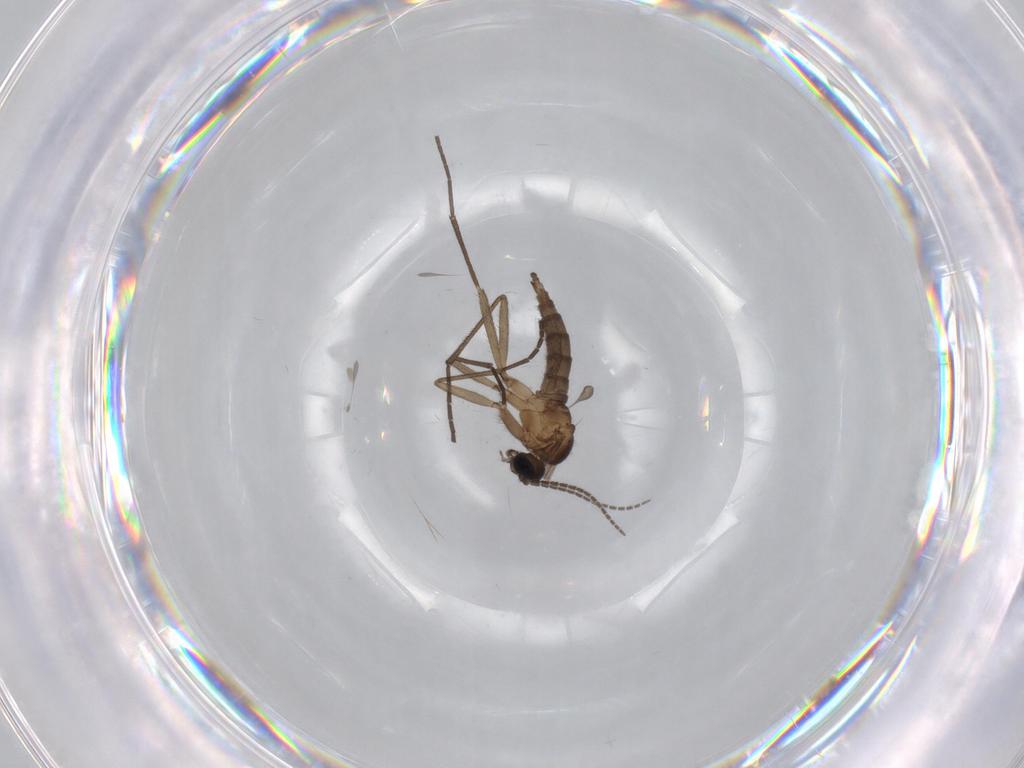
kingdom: Animalia
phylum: Arthropoda
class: Insecta
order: Diptera
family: Sciaridae
